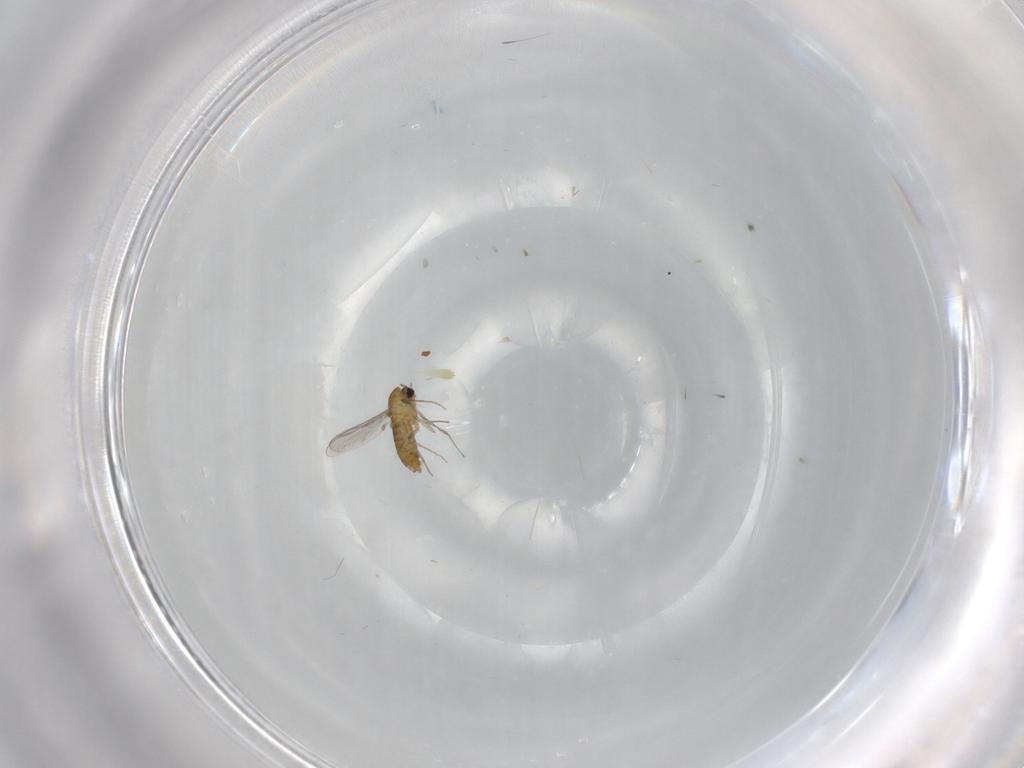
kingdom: Animalia
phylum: Arthropoda
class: Insecta
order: Diptera
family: Chironomidae
